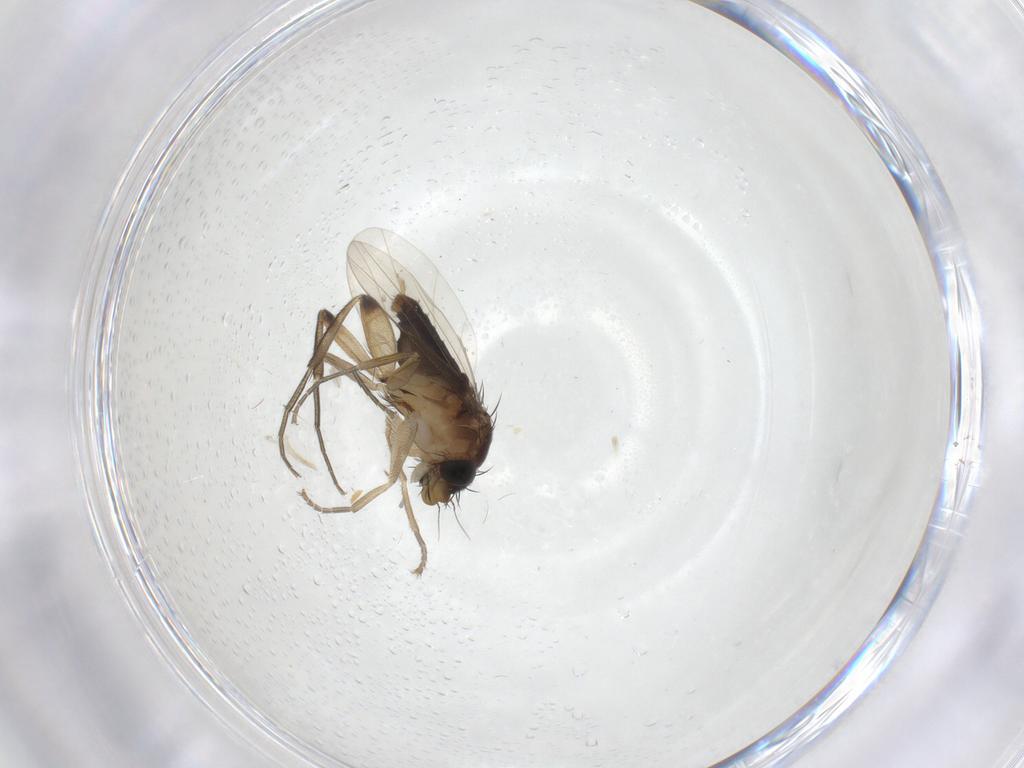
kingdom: Animalia
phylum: Arthropoda
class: Insecta
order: Diptera
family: Phoridae
